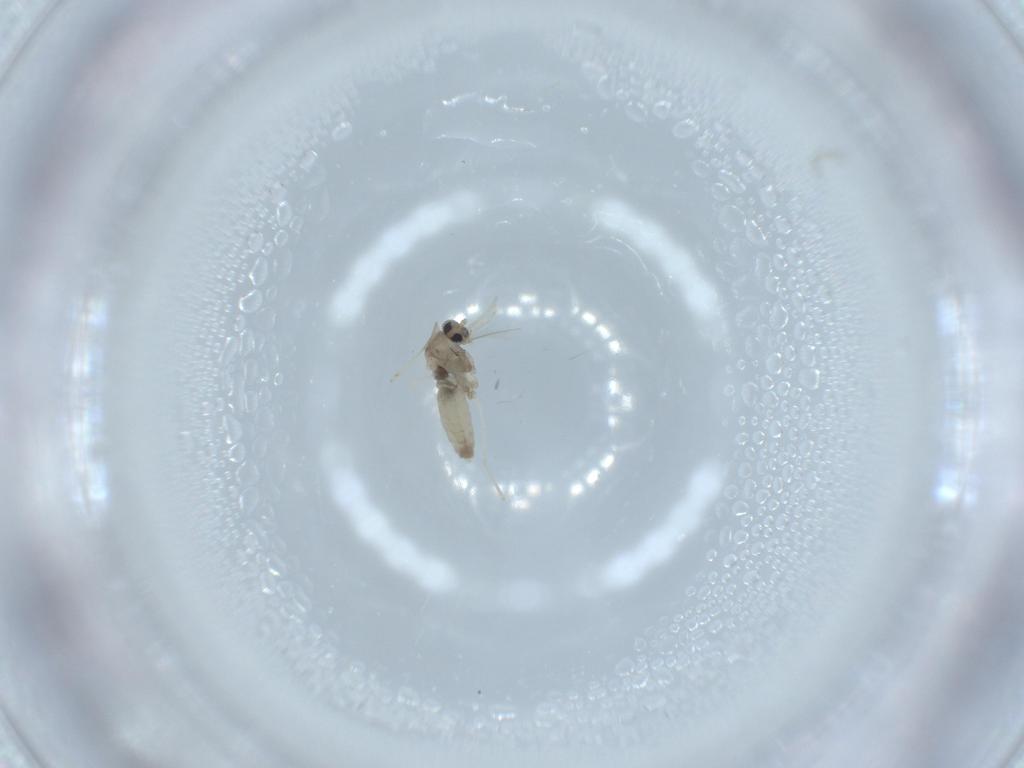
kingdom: Animalia
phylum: Arthropoda
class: Insecta
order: Diptera
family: Cecidomyiidae
